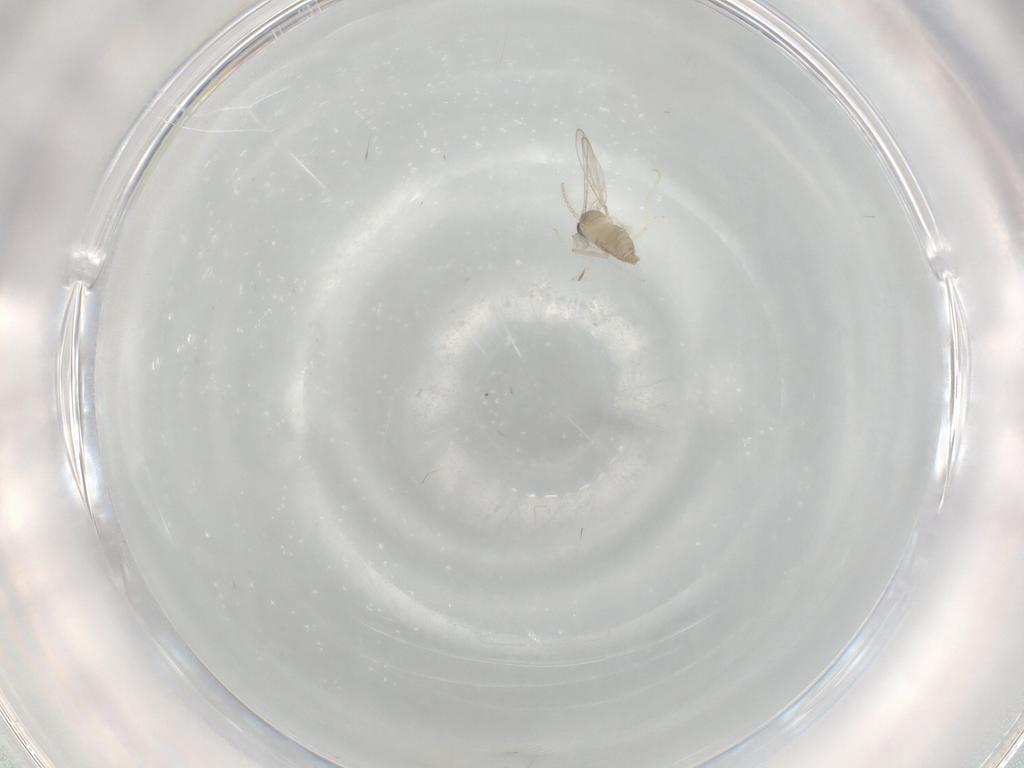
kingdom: Animalia
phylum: Arthropoda
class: Insecta
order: Diptera
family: Cecidomyiidae
